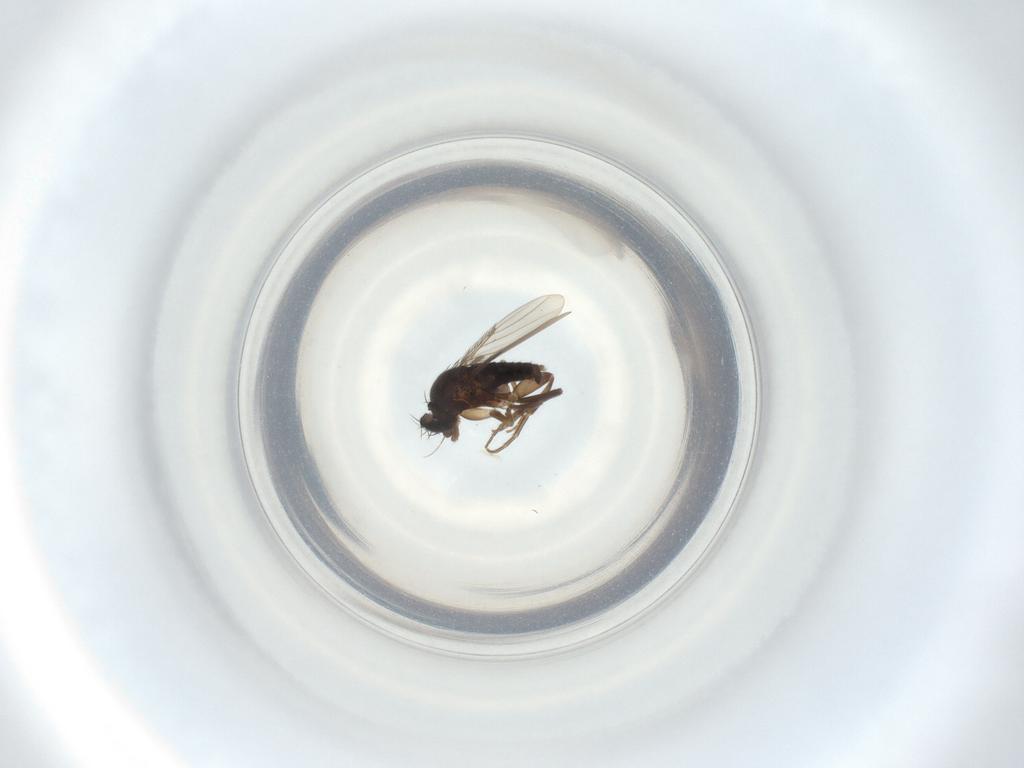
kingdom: Animalia
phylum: Arthropoda
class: Insecta
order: Diptera
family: Phoridae
